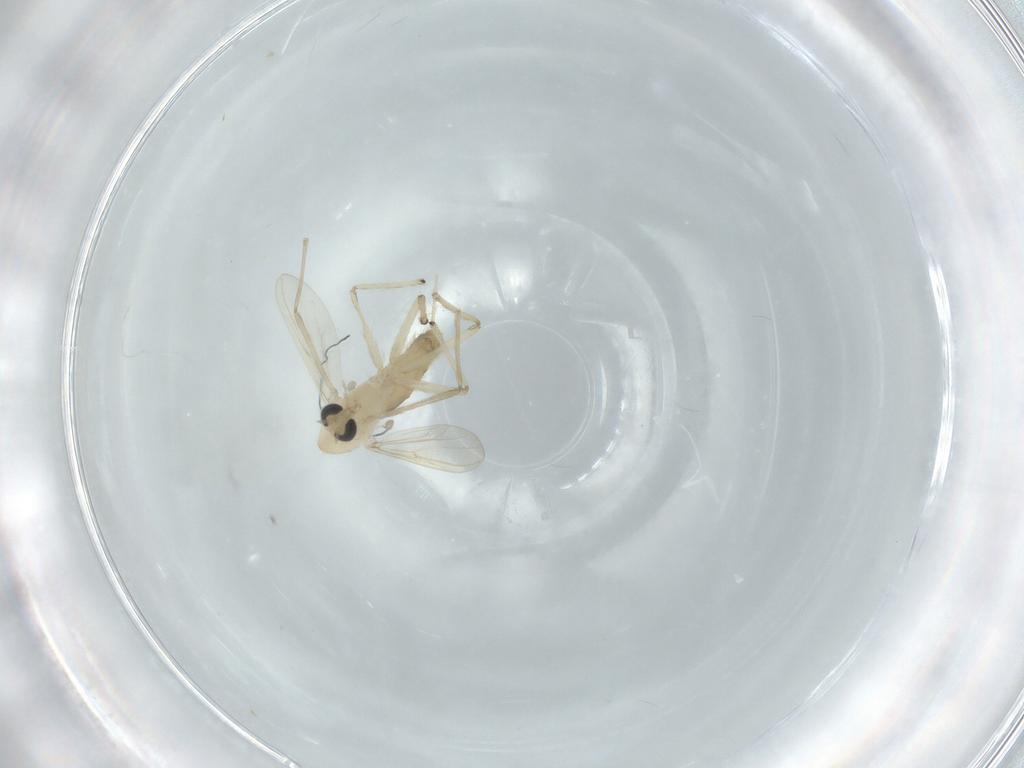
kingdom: Animalia
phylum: Arthropoda
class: Insecta
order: Diptera
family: Chironomidae
